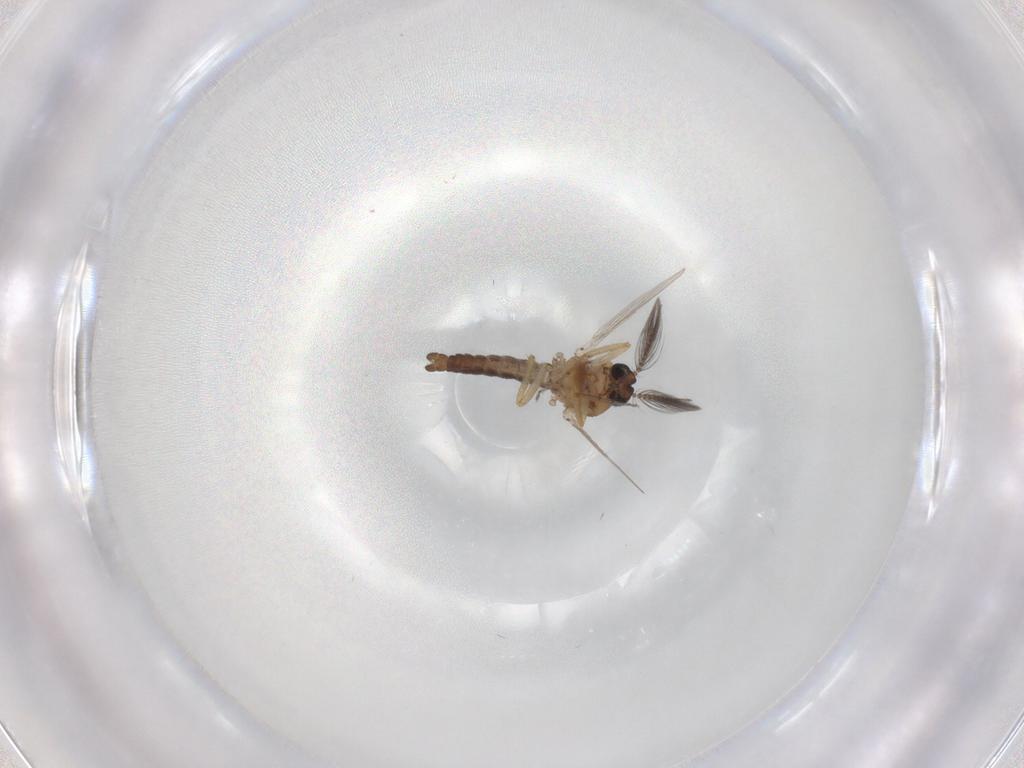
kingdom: Animalia
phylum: Arthropoda
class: Insecta
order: Diptera
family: Ceratopogonidae
